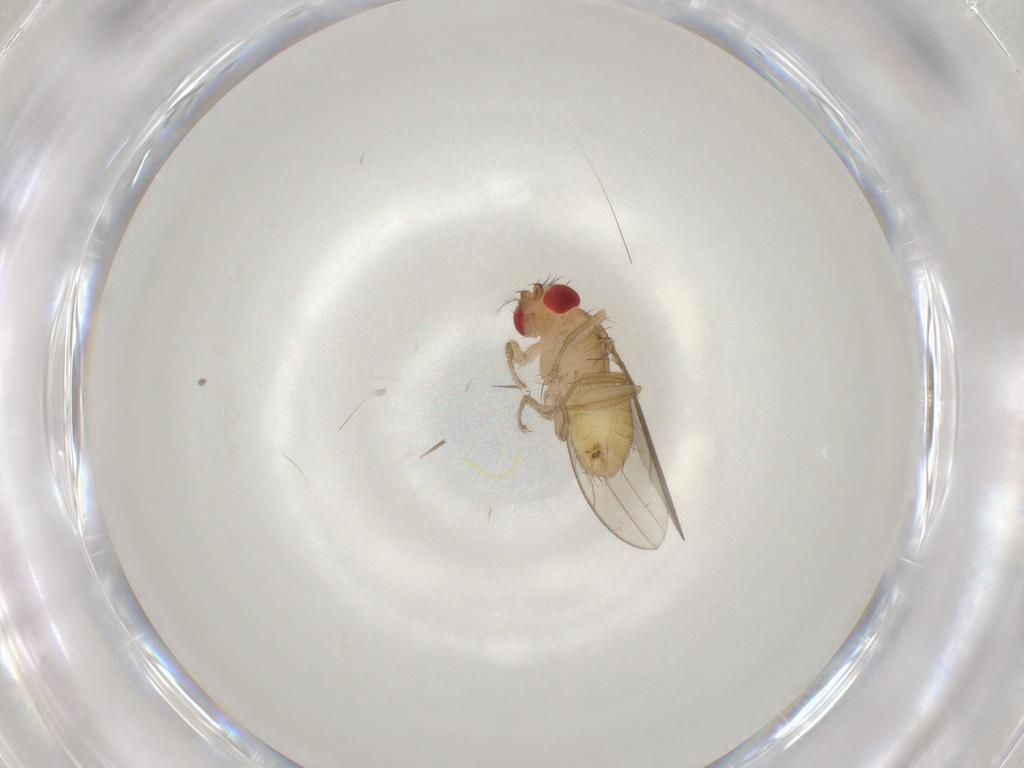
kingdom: Animalia
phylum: Arthropoda
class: Insecta
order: Diptera
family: Drosophilidae
